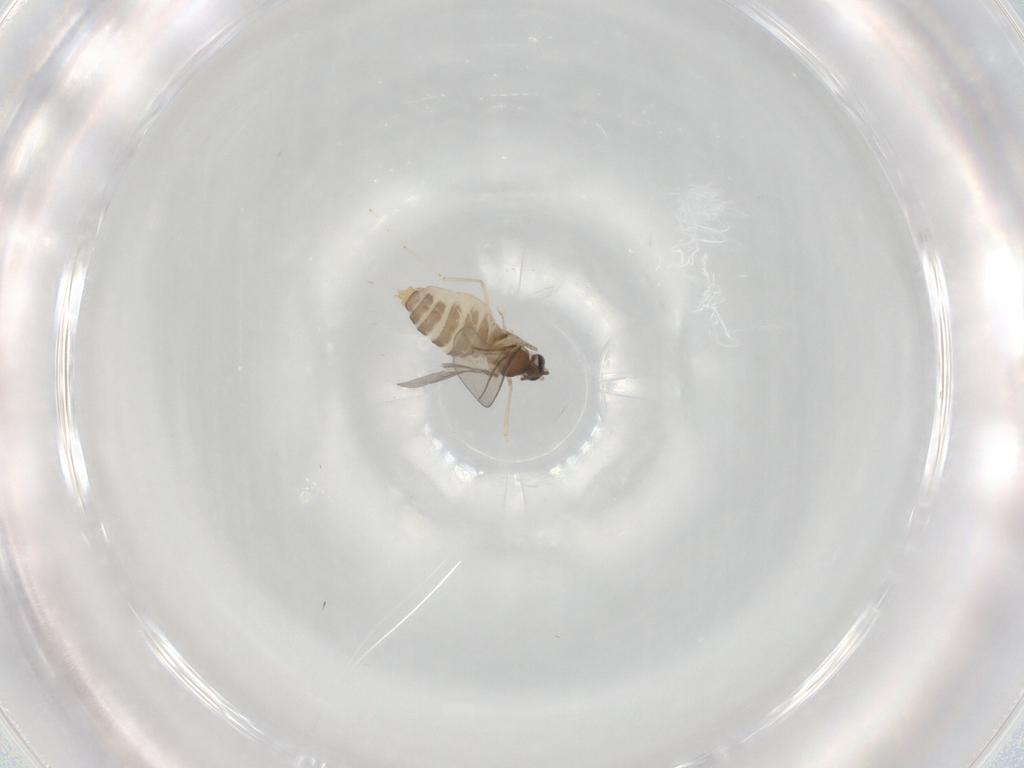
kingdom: Animalia
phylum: Arthropoda
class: Insecta
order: Diptera
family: Cecidomyiidae
